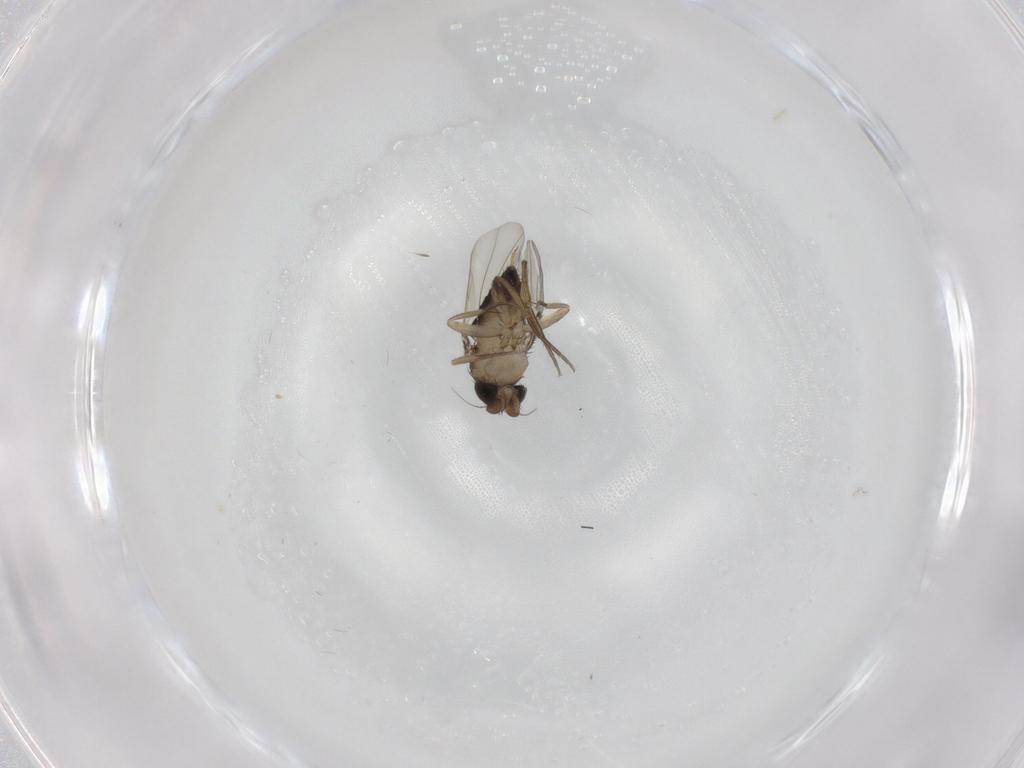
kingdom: Animalia
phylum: Arthropoda
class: Insecta
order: Diptera
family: Phoridae
